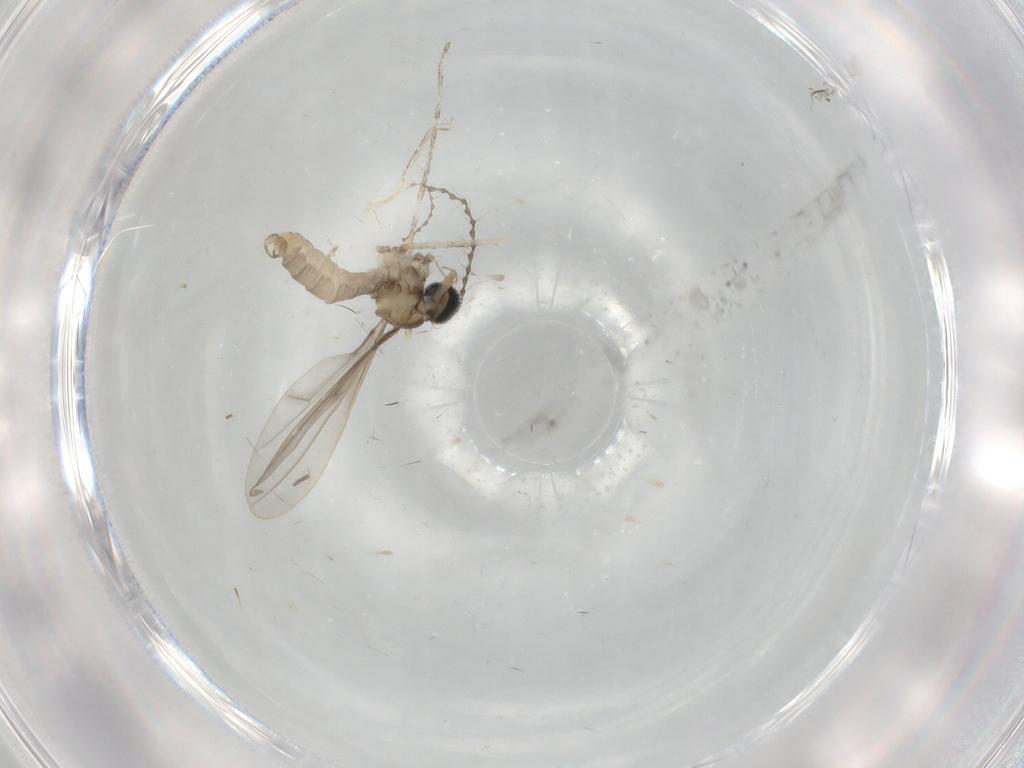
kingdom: Animalia
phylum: Arthropoda
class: Insecta
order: Diptera
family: Cecidomyiidae
